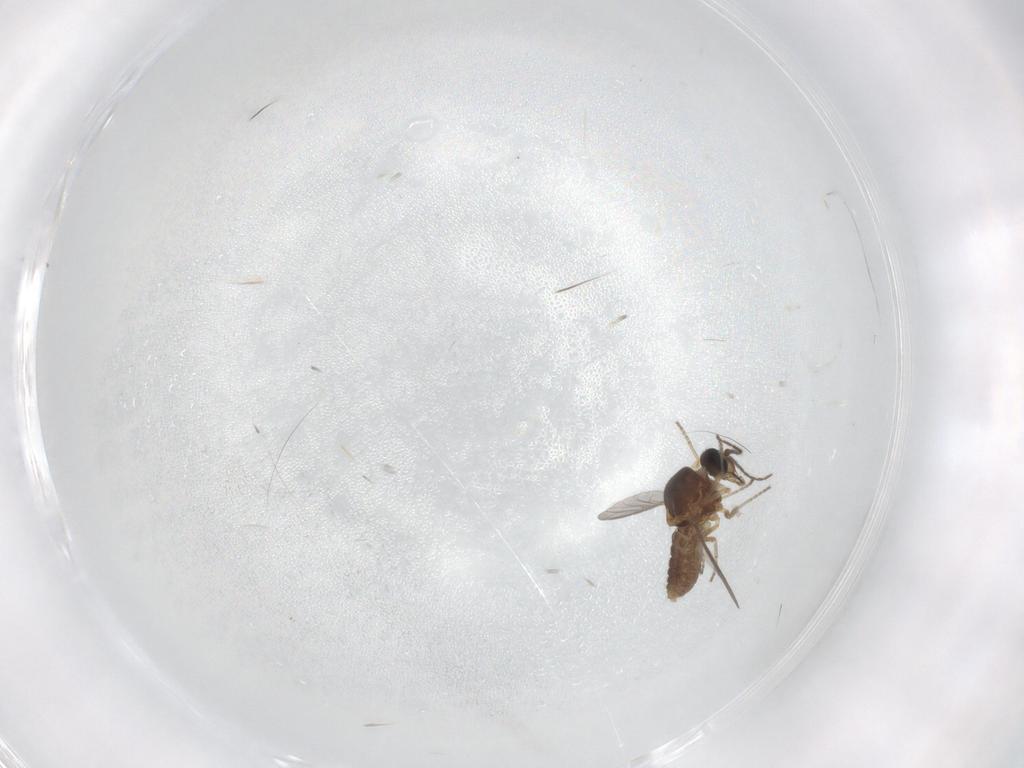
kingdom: Animalia
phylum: Arthropoda
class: Insecta
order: Diptera
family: Ceratopogonidae
